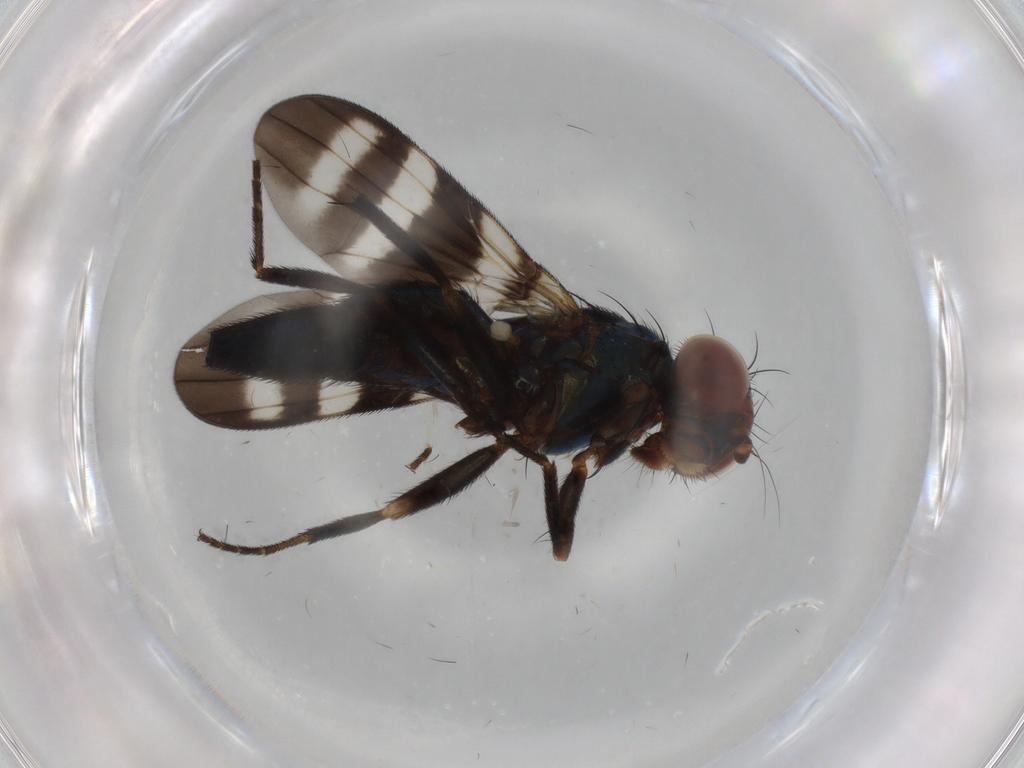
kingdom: Animalia
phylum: Arthropoda
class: Insecta
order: Diptera
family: Ulidiidae
